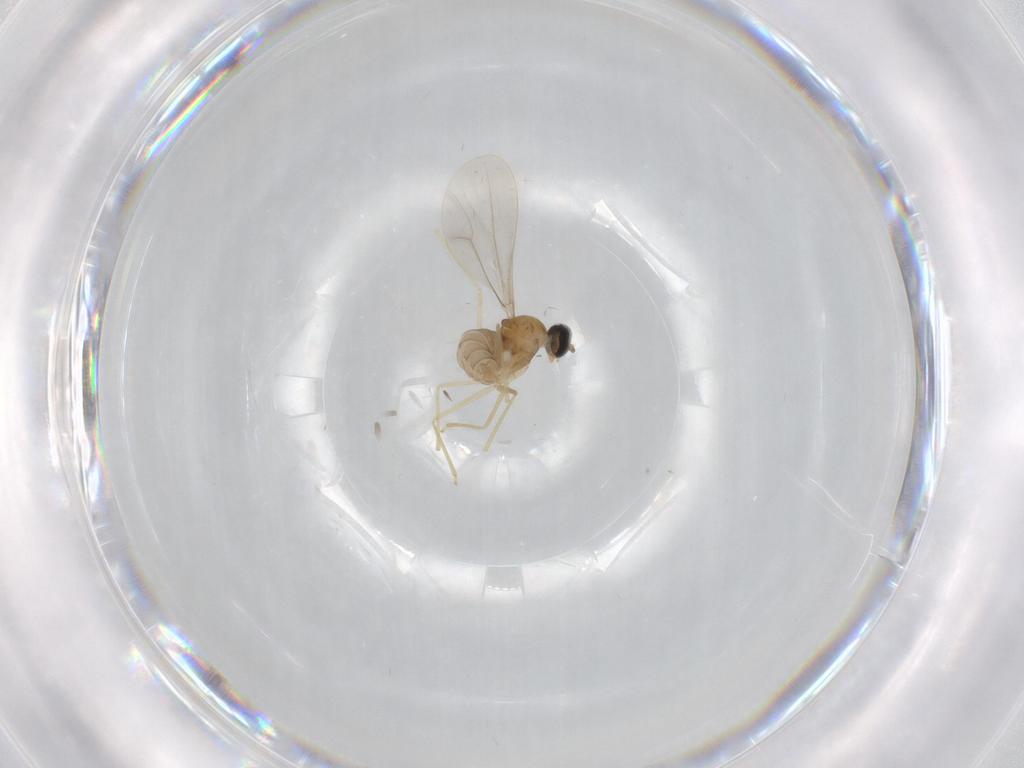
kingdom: Animalia
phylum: Arthropoda
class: Insecta
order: Diptera
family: Cecidomyiidae
